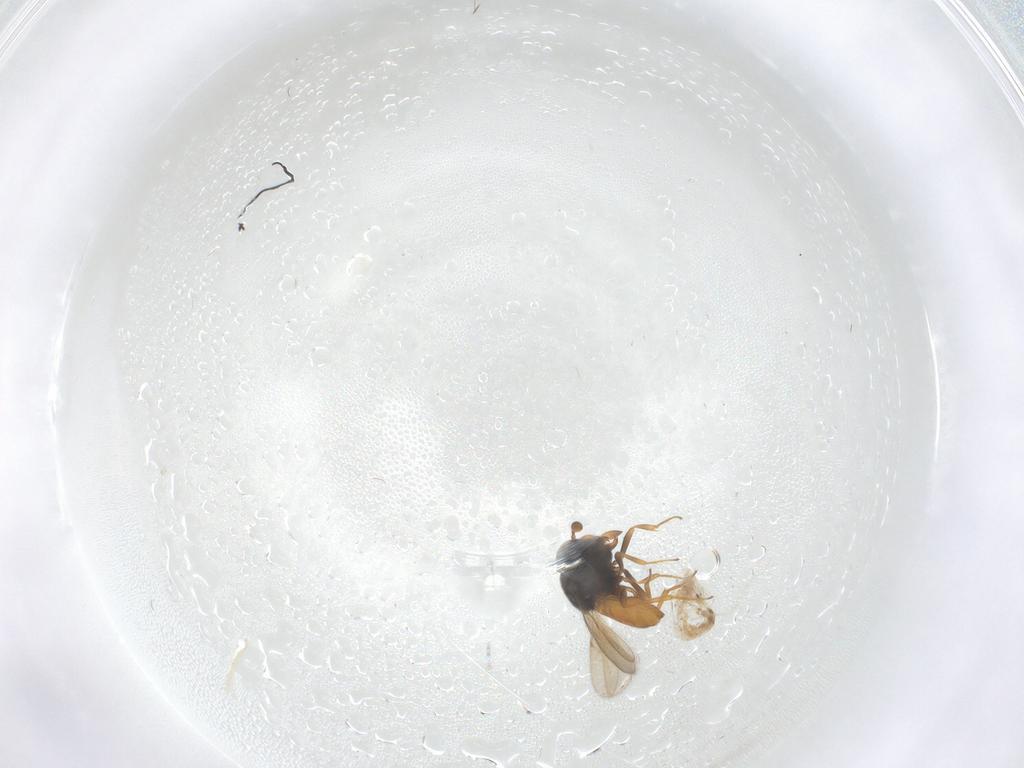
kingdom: Animalia
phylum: Arthropoda
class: Insecta
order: Hymenoptera
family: Scelionidae
